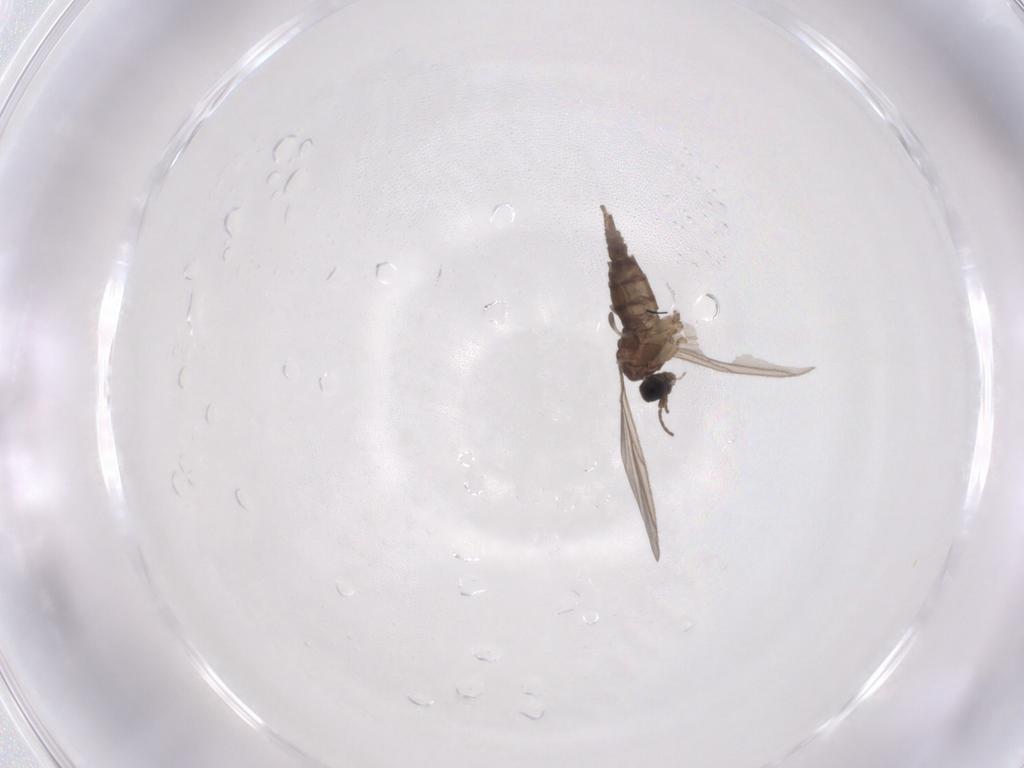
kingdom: Animalia
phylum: Arthropoda
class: Insecta
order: Diptera
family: Sciaridae
